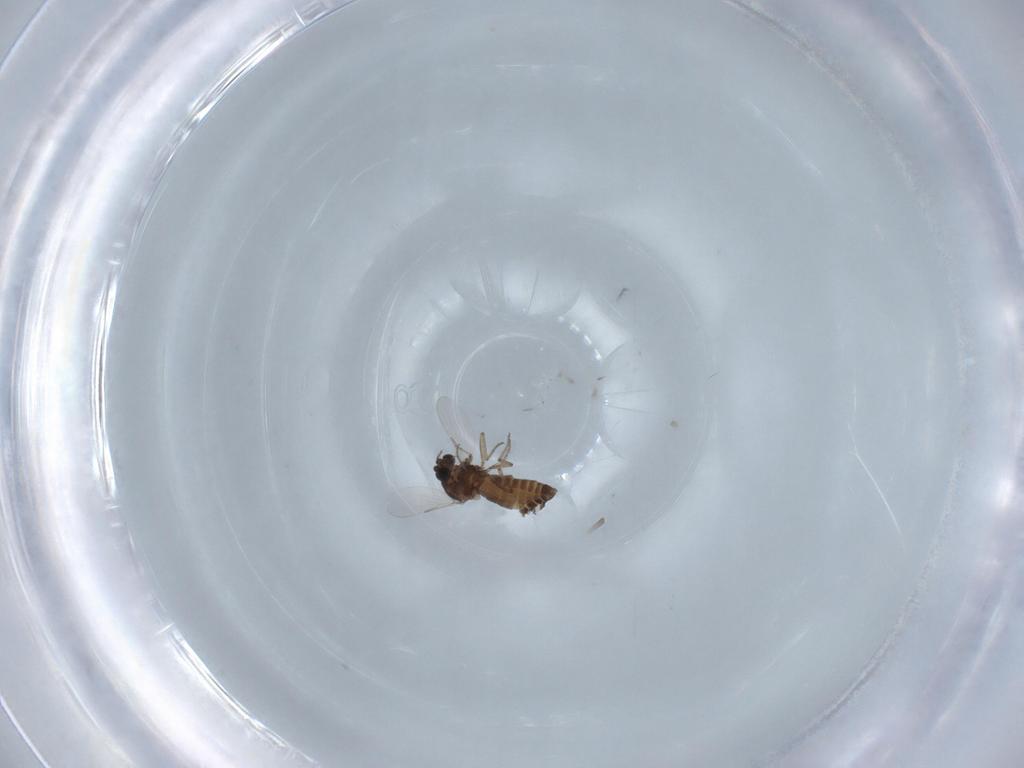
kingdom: Animalia
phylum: Arthropoda
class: Insecta
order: Diptera
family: Ceratopogonidae
